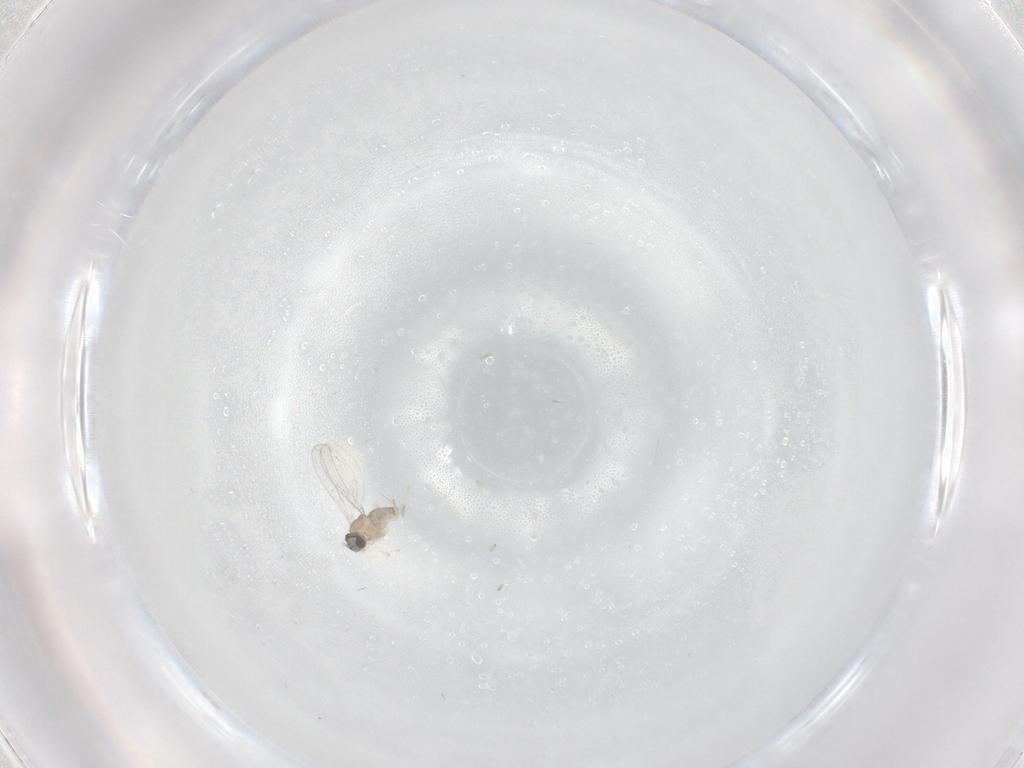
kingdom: Animalia
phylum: Arthropoda
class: Insecta
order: Diptera
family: Cecidomyiidae
